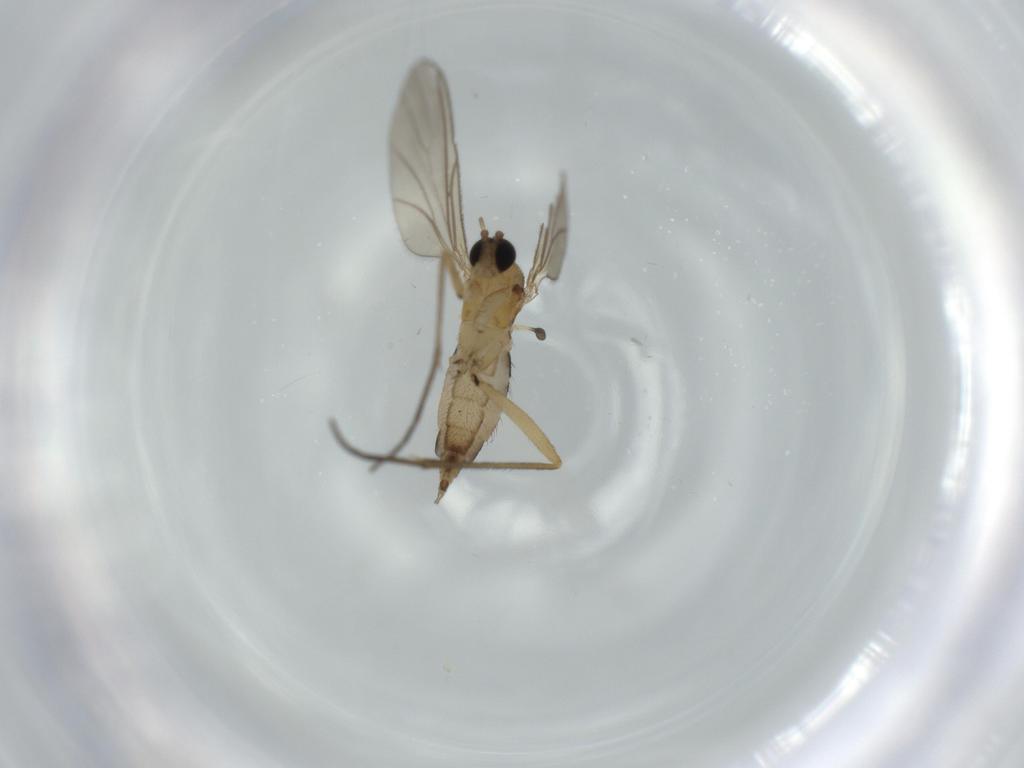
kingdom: Animalia
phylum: Arthropoda
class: Insecta
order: Diptera
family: Sciaridae
